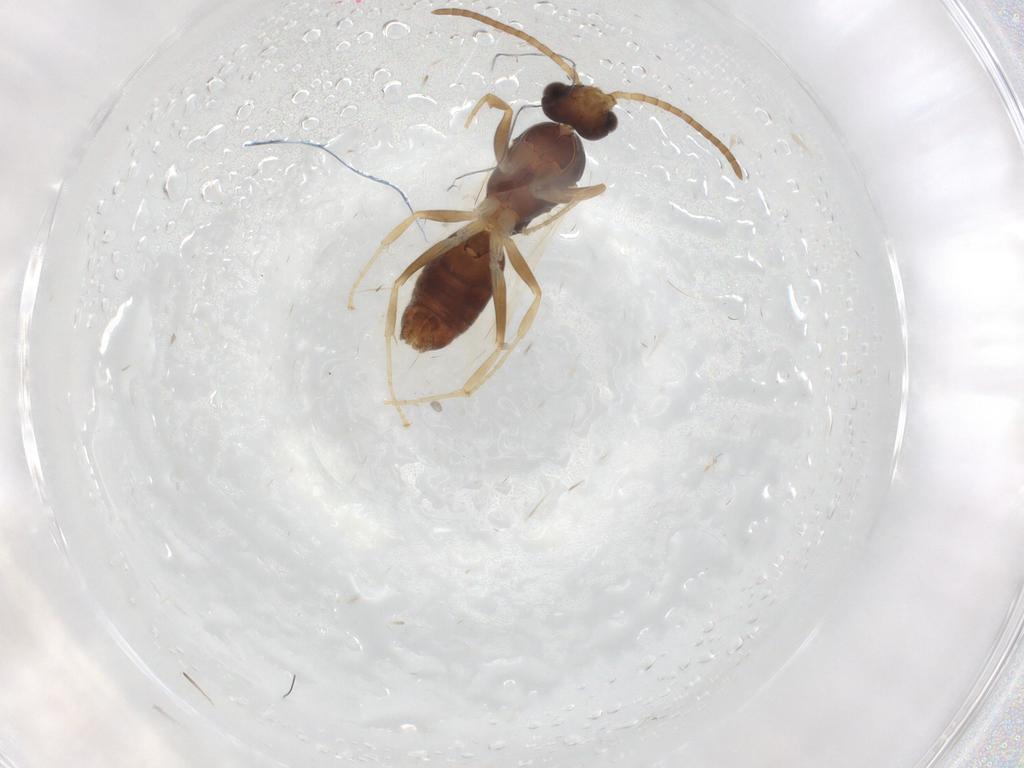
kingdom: Animalia
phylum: Arthropoda
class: Insecta
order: Hymenoptera
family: Formicidae
